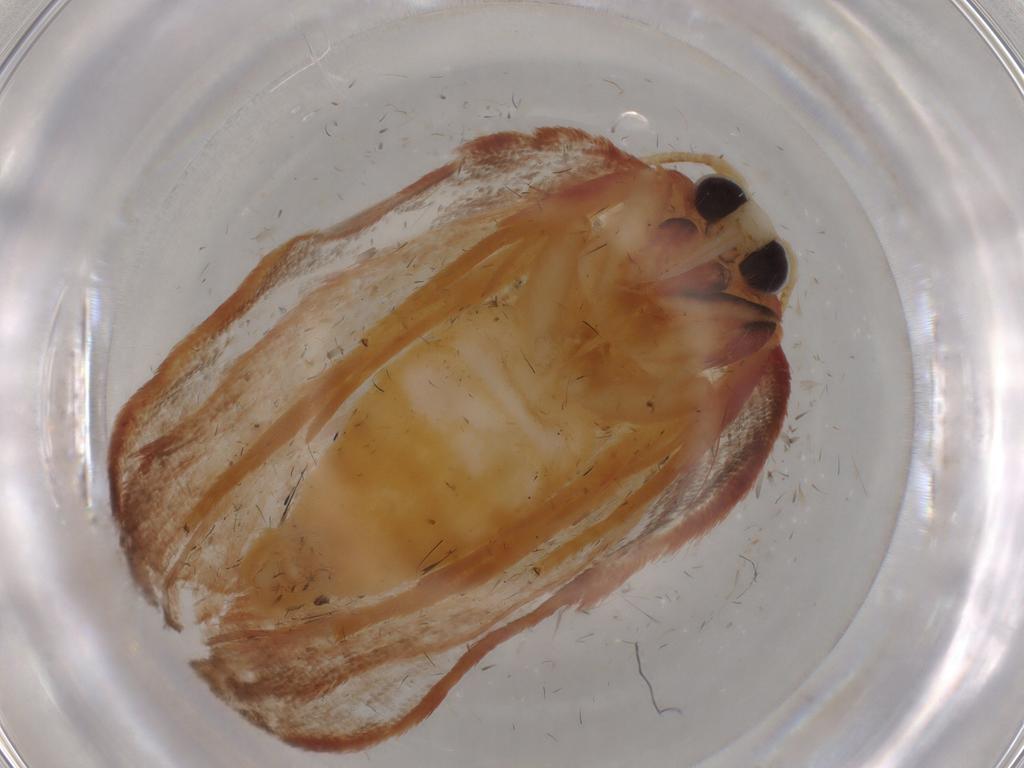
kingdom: Animalia
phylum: Arthropoda
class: Insecta
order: Lepidoptera
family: Depressariidae
